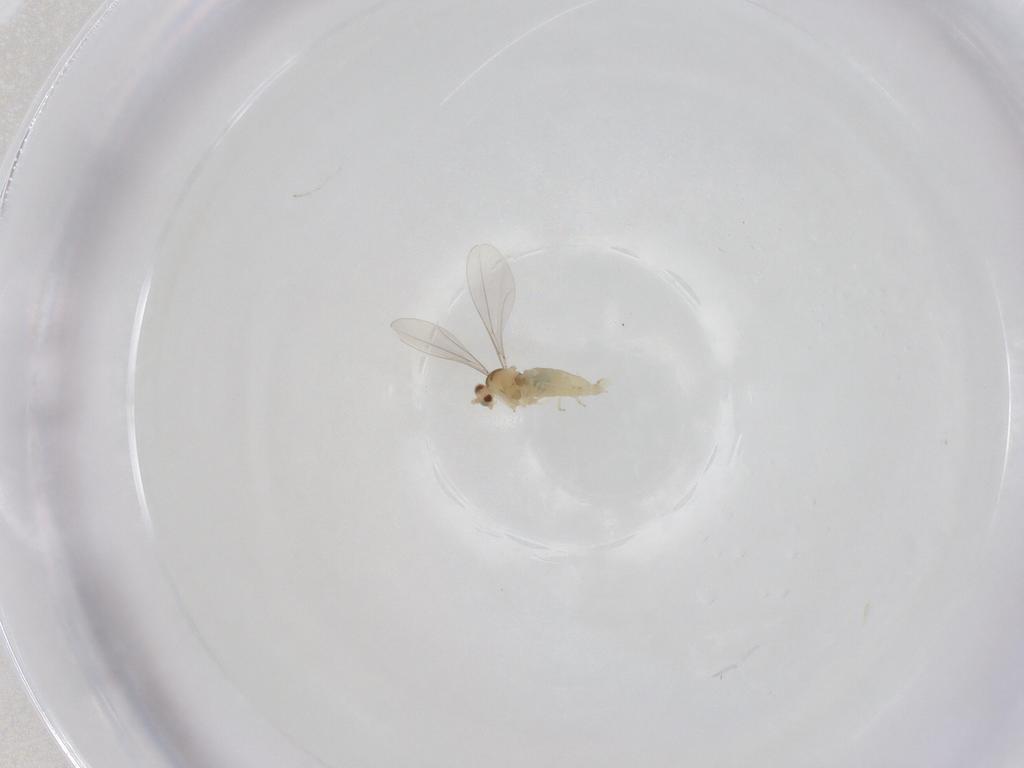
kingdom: Animalia
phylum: Arthropoda
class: Insecta
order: Diptera
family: Cecidomyiidae
